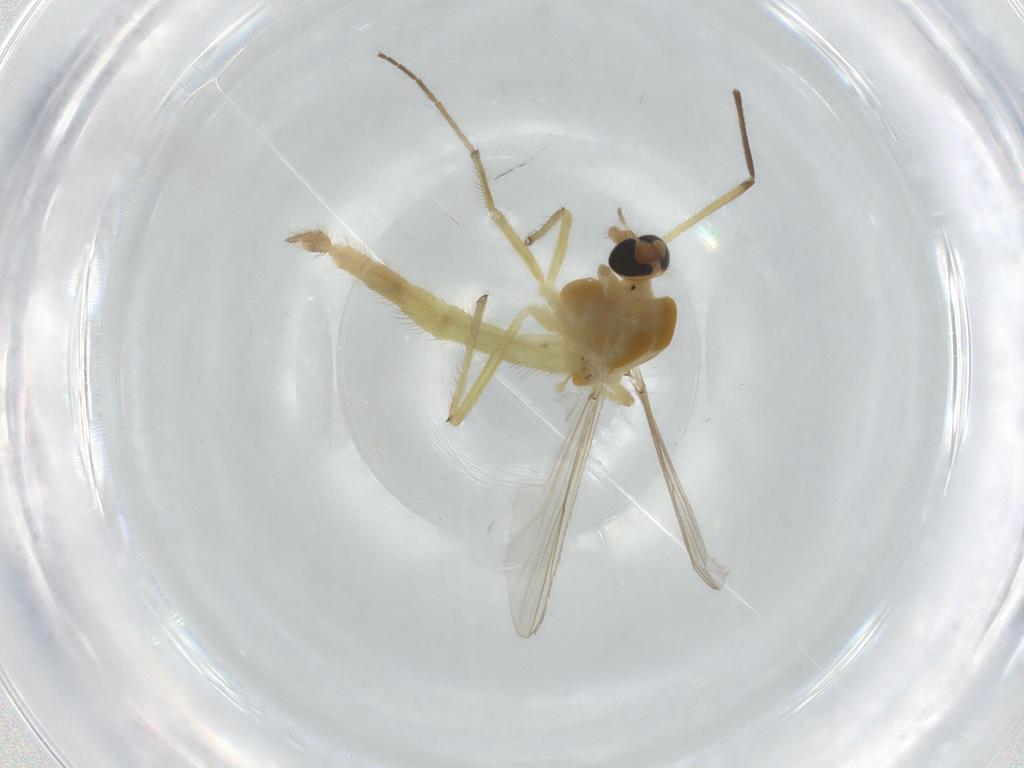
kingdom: Animalia
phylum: Arthropoda
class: Insecta
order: Diptera
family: Chironomidae
